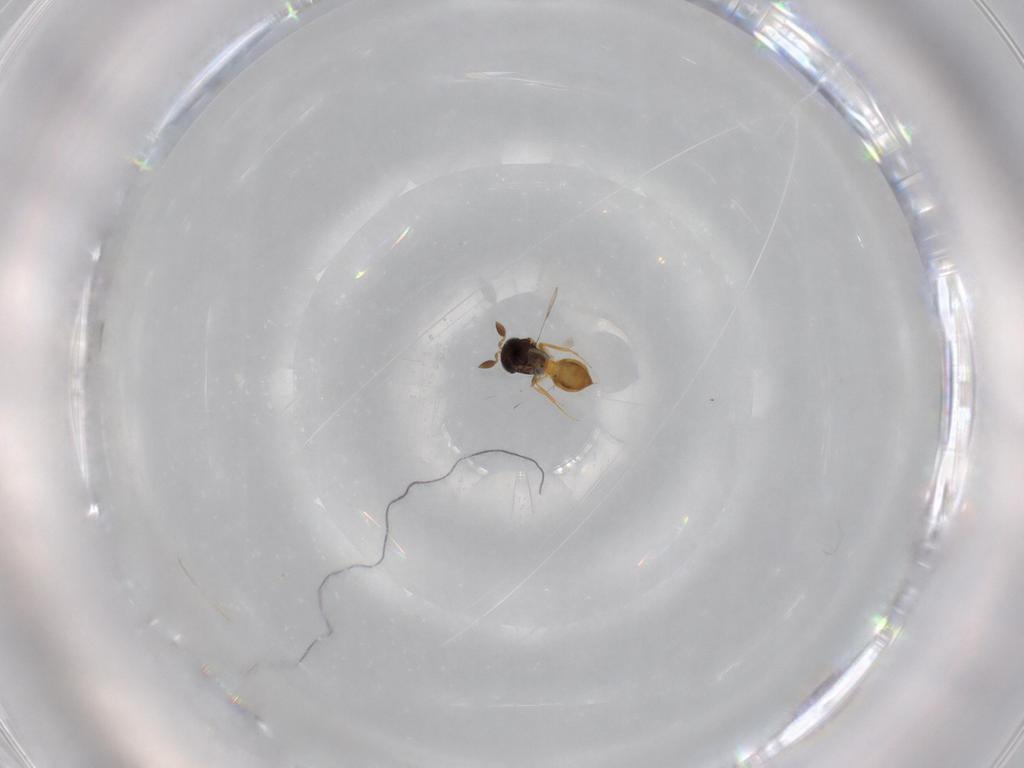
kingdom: Animalia
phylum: Arthropoda
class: Insecta
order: Hymenoptera
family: Scelionidae
